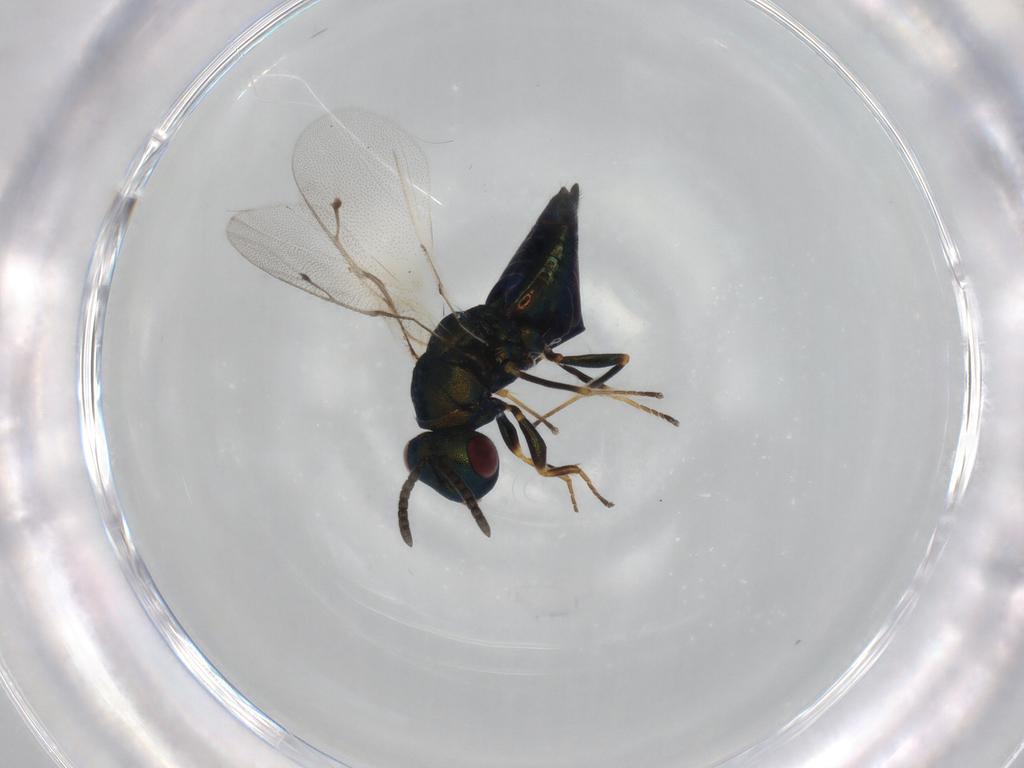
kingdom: Animalia
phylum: Arthropoda
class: Insecta
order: Hymenoptera
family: Pteromalidae
